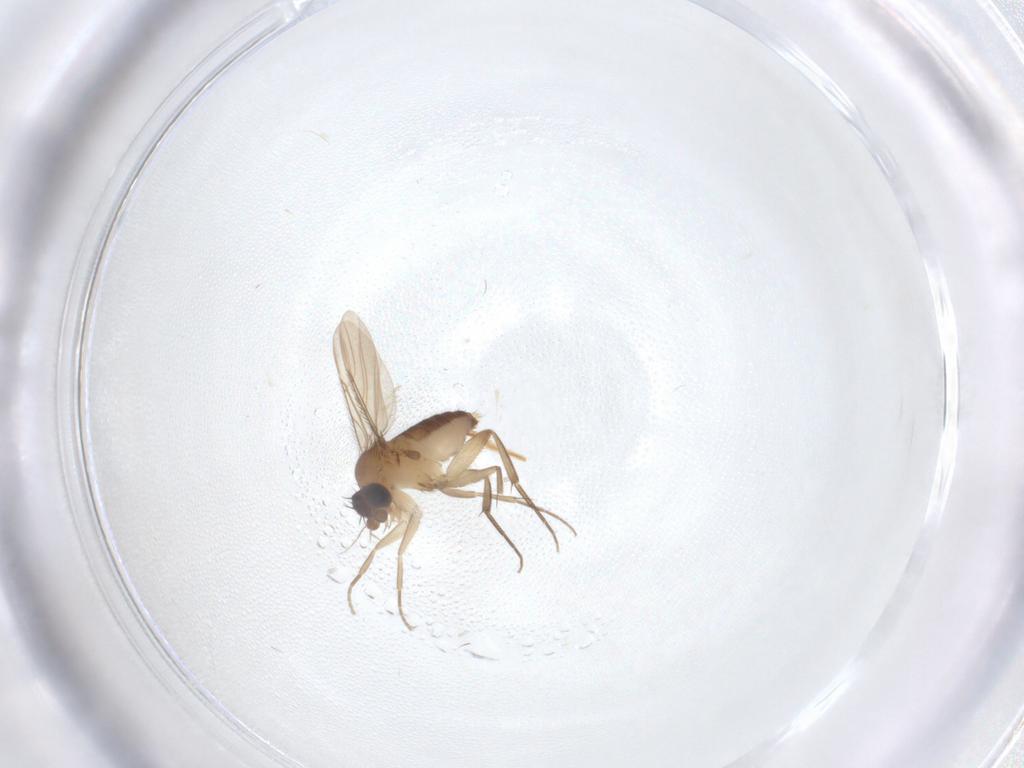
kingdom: Animalia
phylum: Arthropoda
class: Insecta
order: Diptera
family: Phoridae
